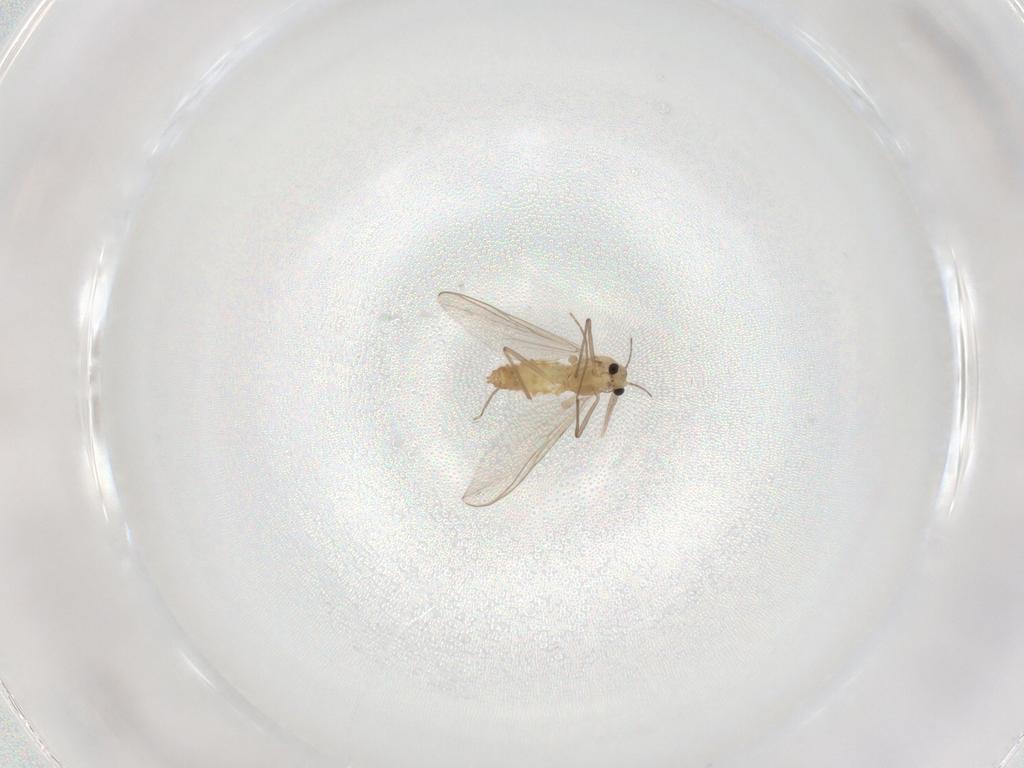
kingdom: Animalia
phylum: Arthropoda
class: Insecta
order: Diptera
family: Chironomidae
